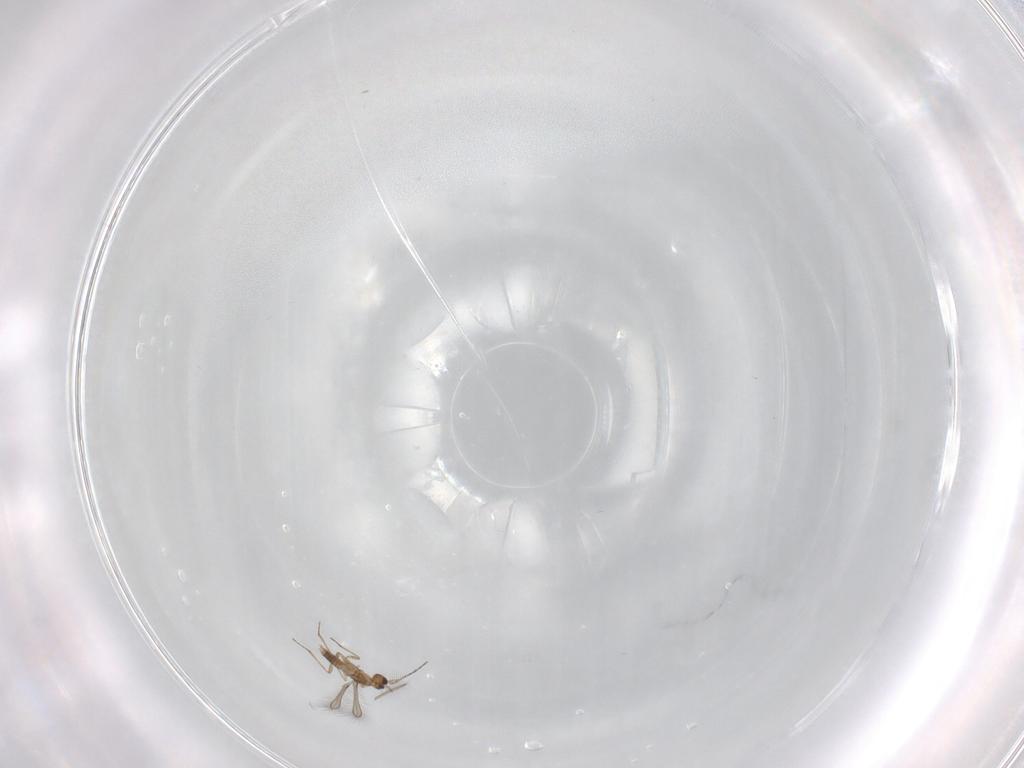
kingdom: Animalia
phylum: Arthropoda
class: Insecta
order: Hymenoptera
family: Mymaridae
